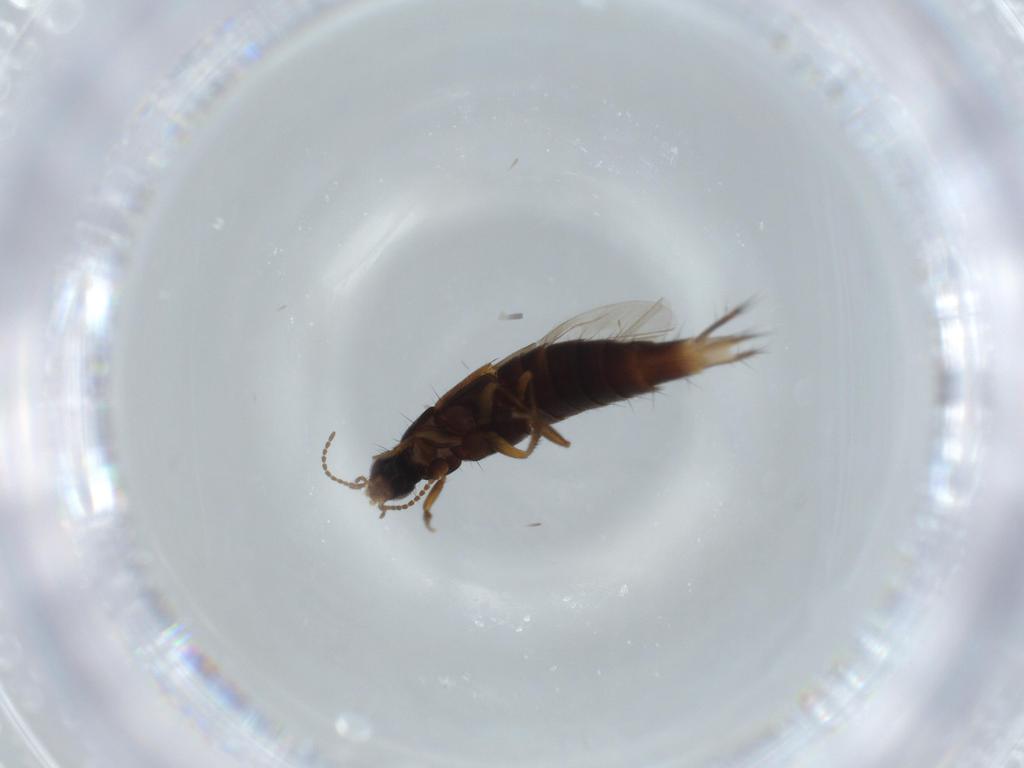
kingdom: Animalia
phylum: Arthropoda
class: Insecta
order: Coleoptera
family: Staphylinidae
